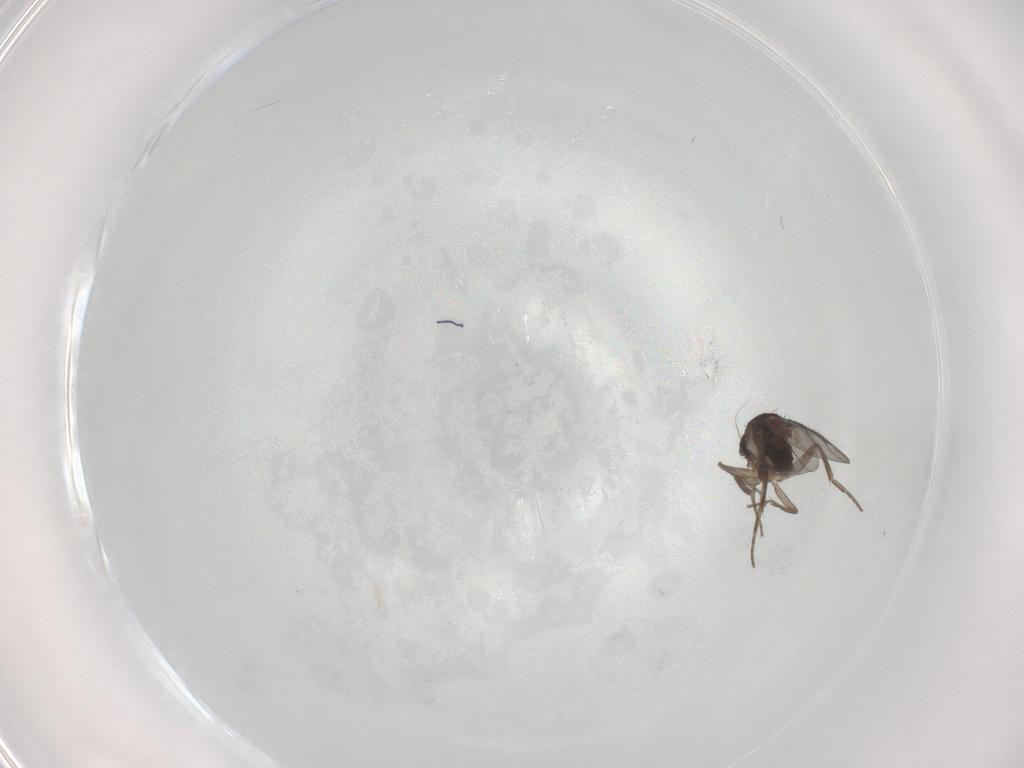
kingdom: Animalia
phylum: Arthropoda
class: Insecta
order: Diptera
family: Phoridae
